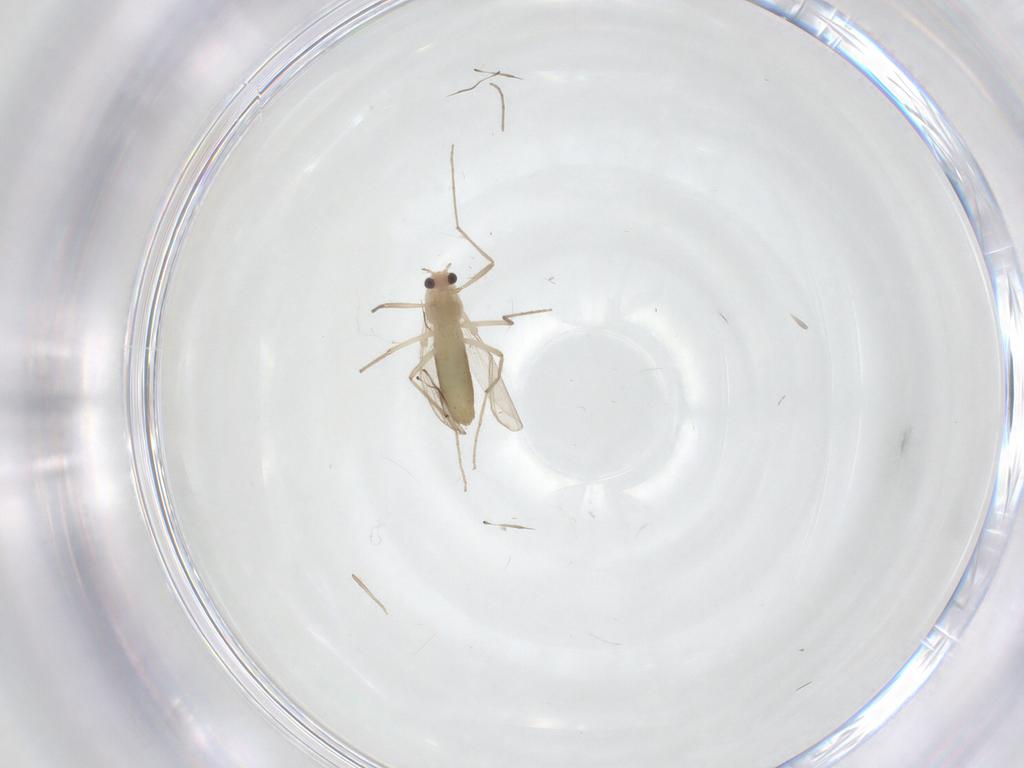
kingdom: Animalia
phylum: Arthropoda
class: Insecta
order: Diptera
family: Chironomidae
